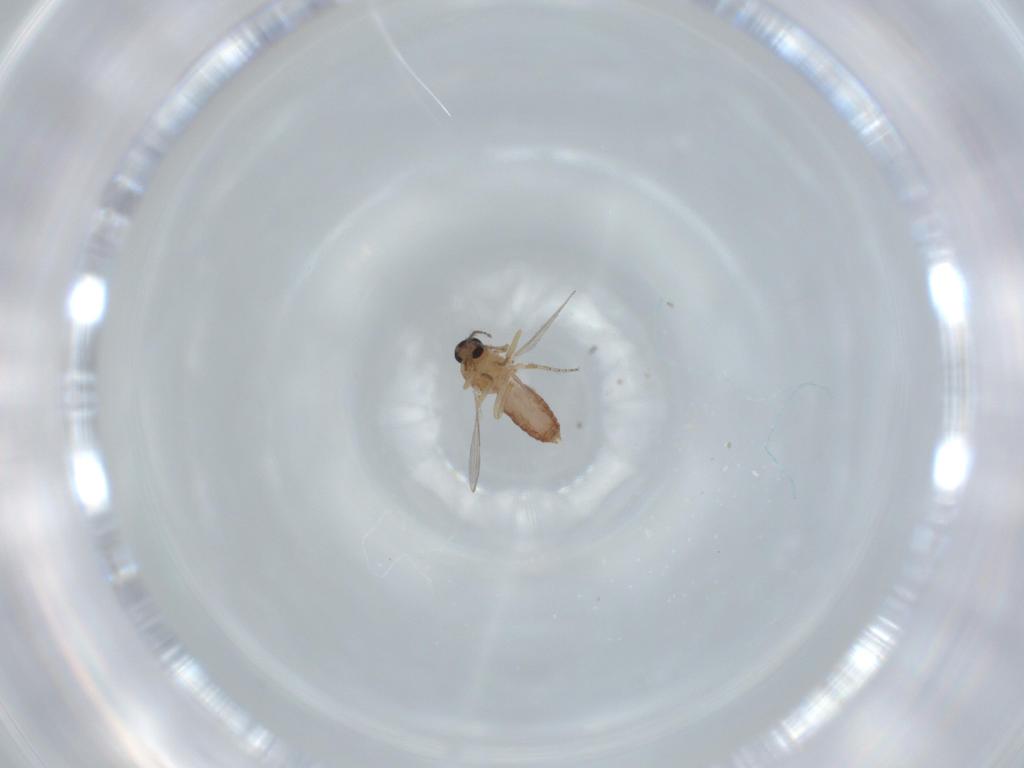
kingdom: Animalia
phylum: Arthropoda
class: Insecta
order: Diptera
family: Ceratopogonidae
